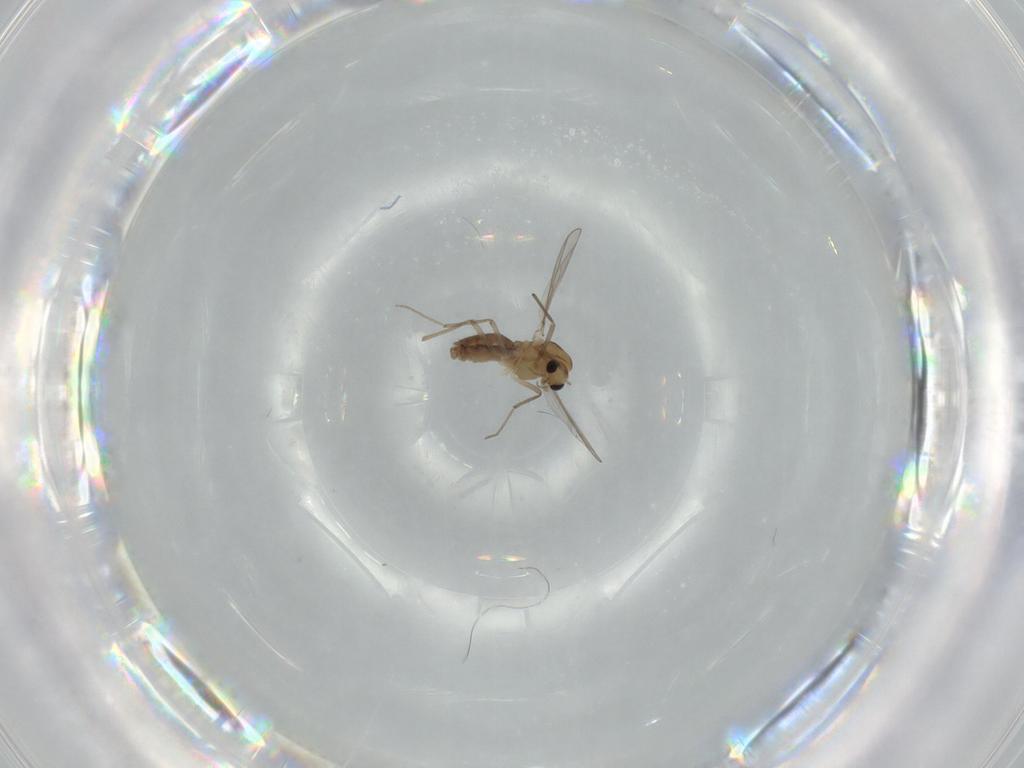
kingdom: Animalia
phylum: Arthropoda
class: Insecta
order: Diptera
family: Chironomidae
